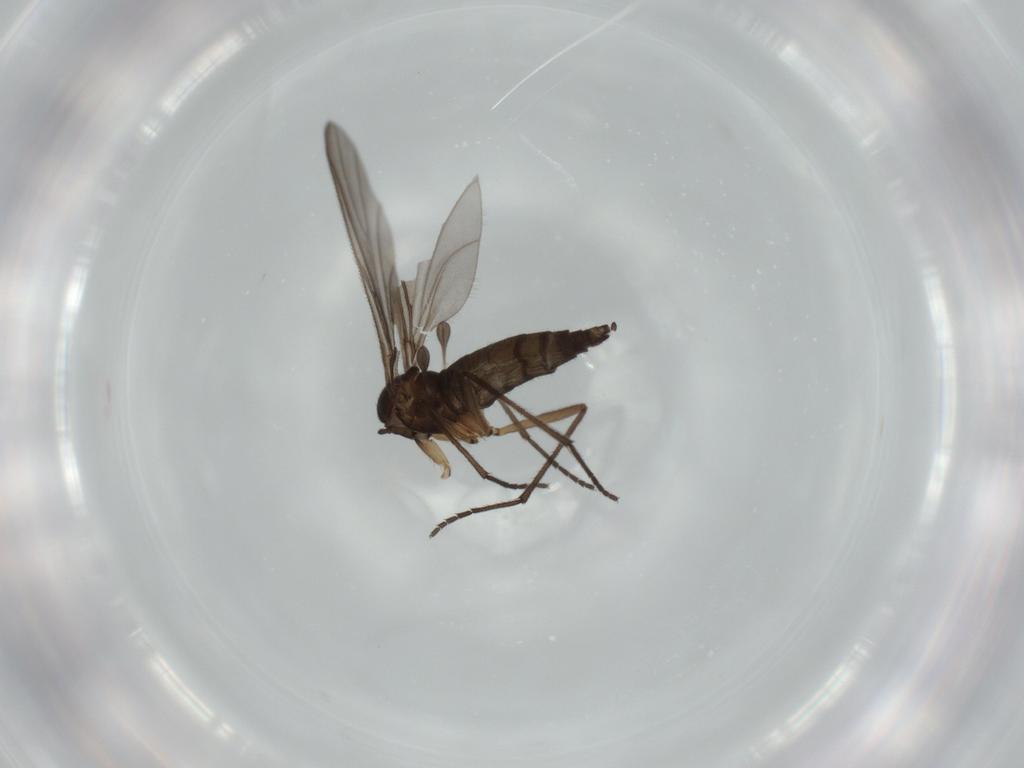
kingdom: Animalia
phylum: Arthropoda
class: Insecta
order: Diptera
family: Sciaridae
